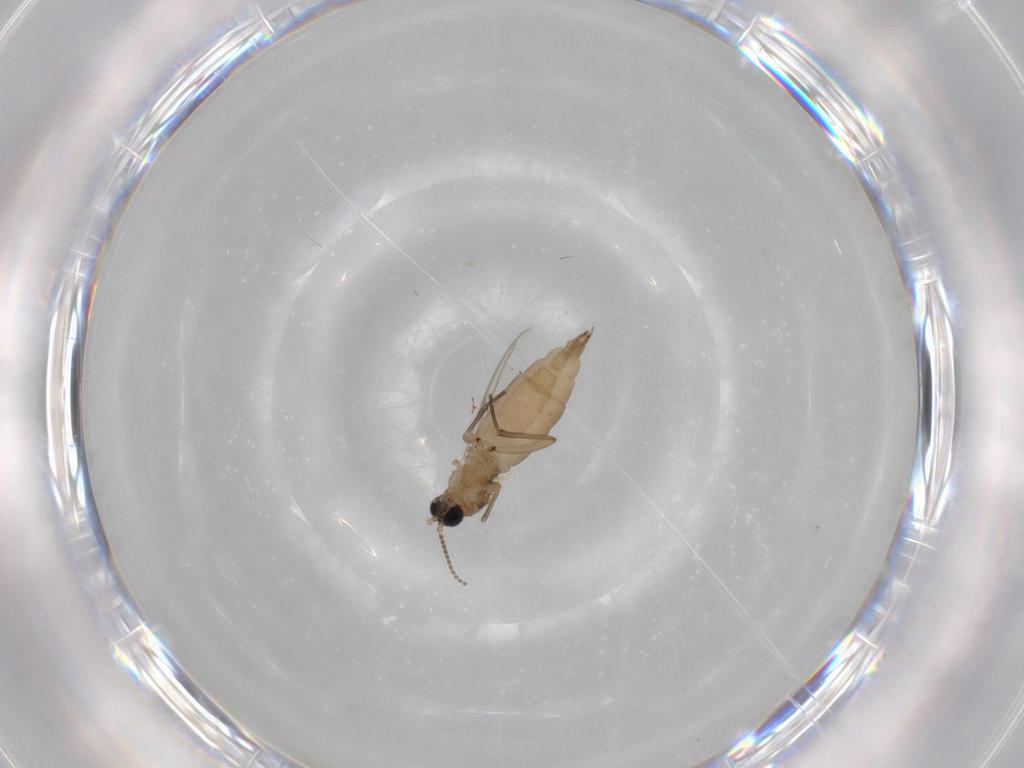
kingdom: Animalia
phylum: Arthropoda
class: Insecta
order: Diptera
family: Sciaridae
